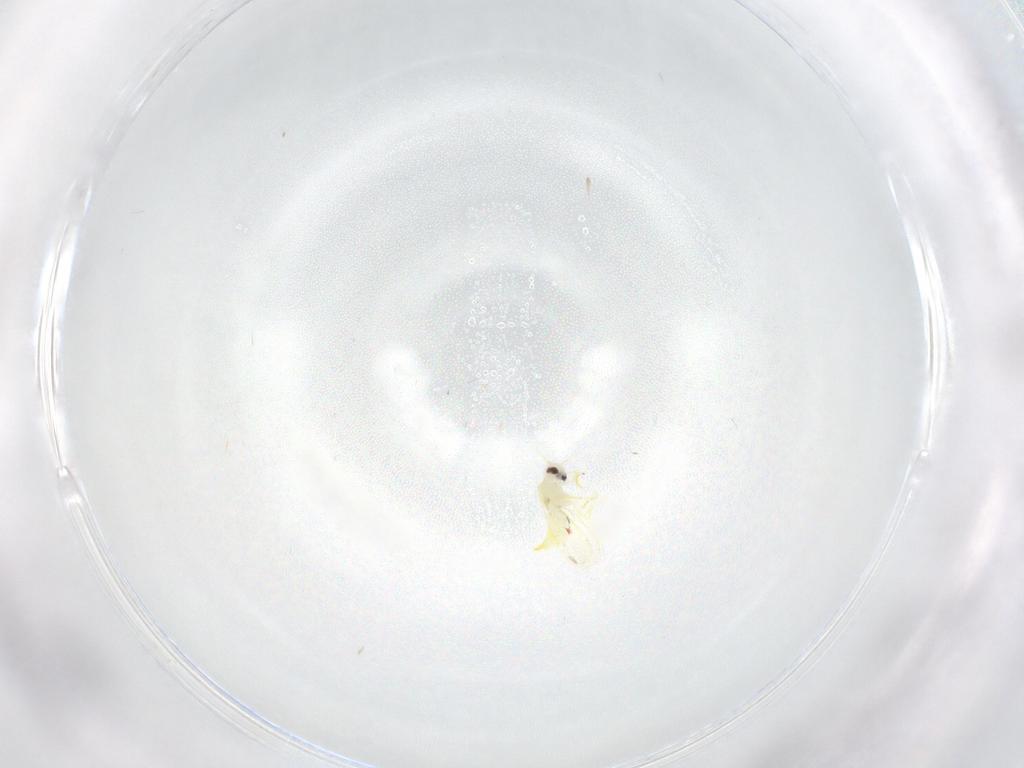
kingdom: Animalia
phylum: Arthropoda
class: Insecta
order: Hemiptera
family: Aleyrodidae
